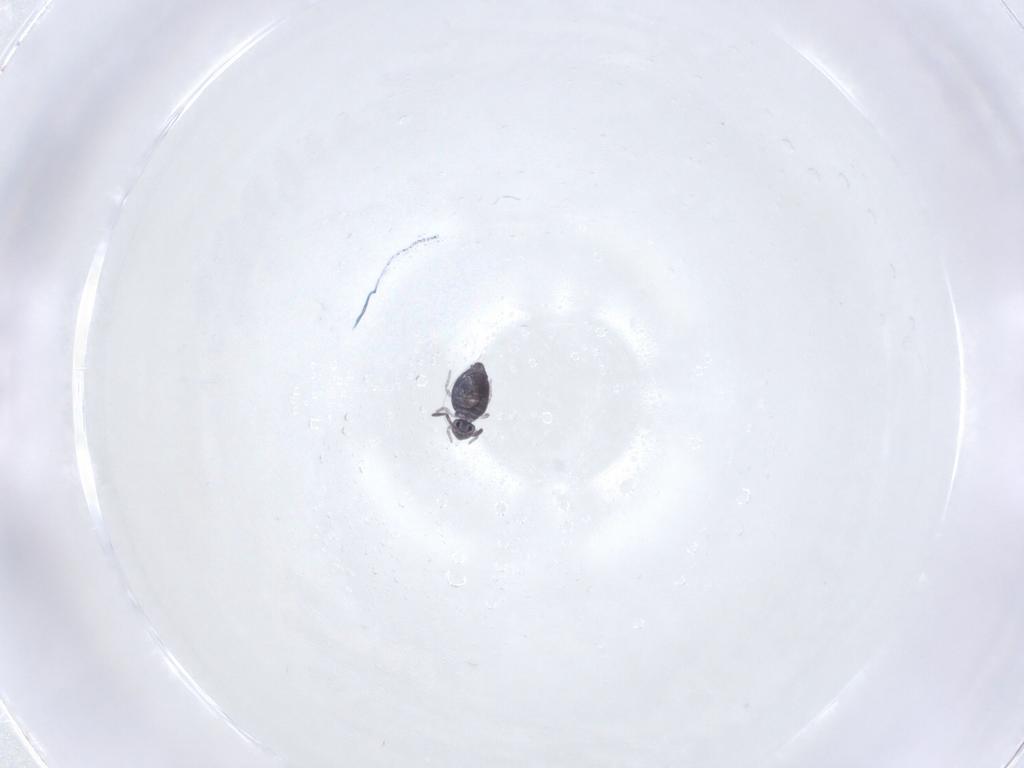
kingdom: Animalia
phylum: Arthropoda
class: Collembola
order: Symphypleona
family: Katiannidae
